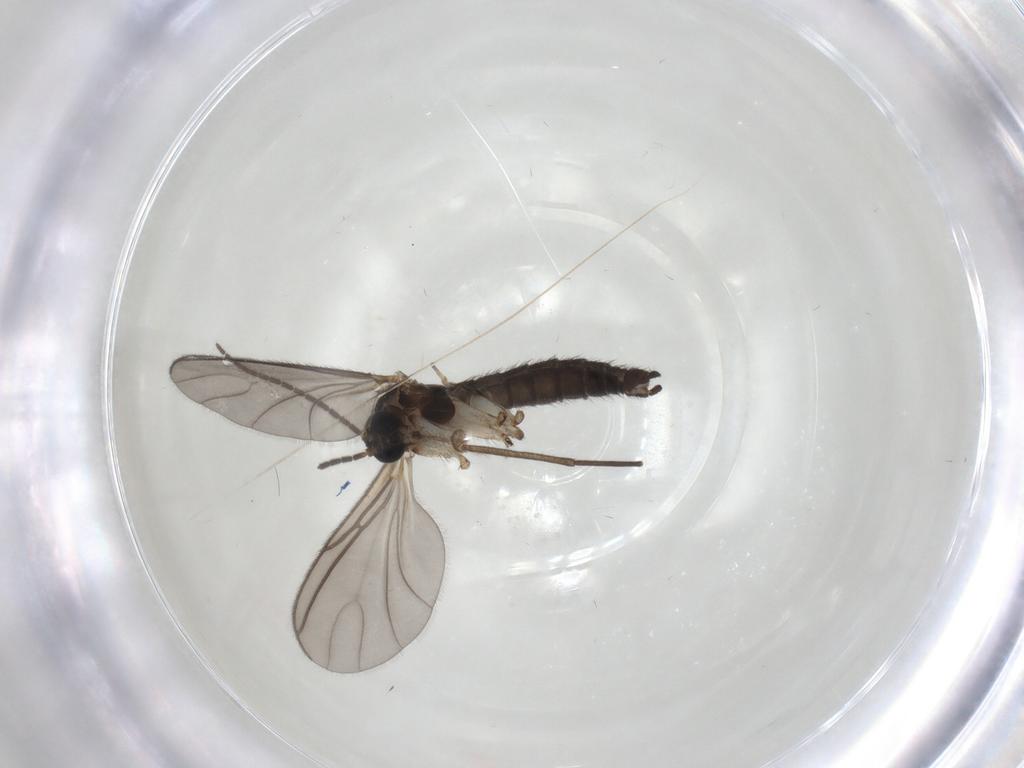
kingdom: Animalia
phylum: Arthropoda
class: Insecta
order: Diptera
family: Sciaridae
